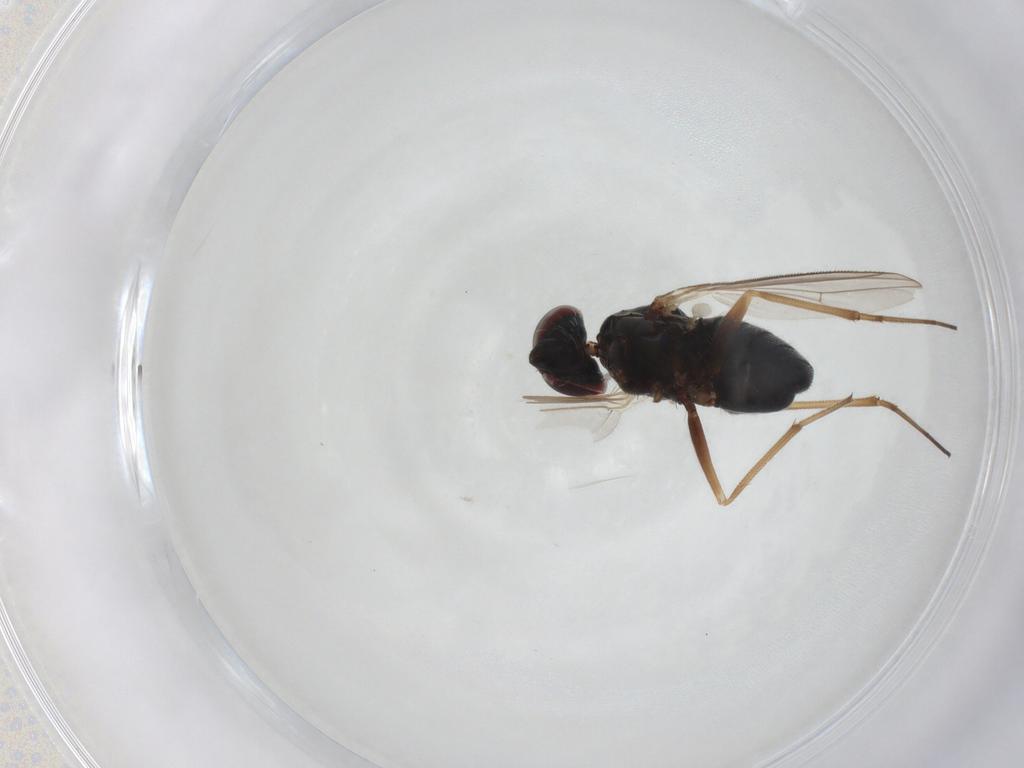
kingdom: Animalia
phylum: Arthropoda
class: Insecta
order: Diptera
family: Dolichopodidae
